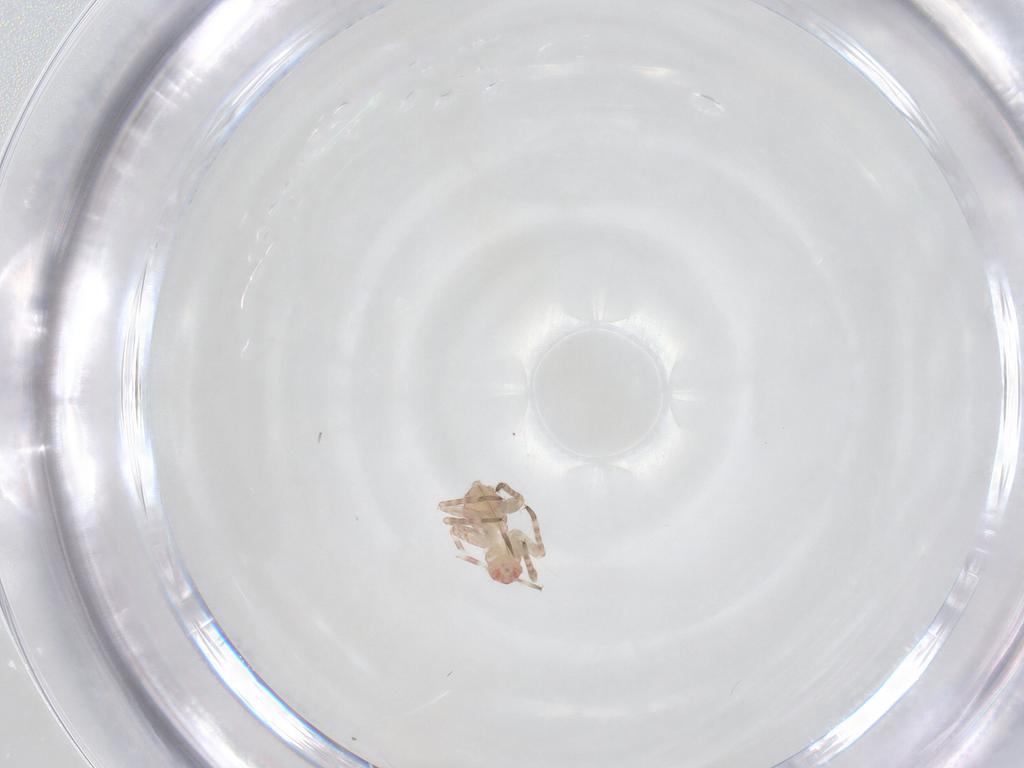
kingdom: Animalia
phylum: Arthropoda
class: Insecta
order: Hemiptera
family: Miridae
